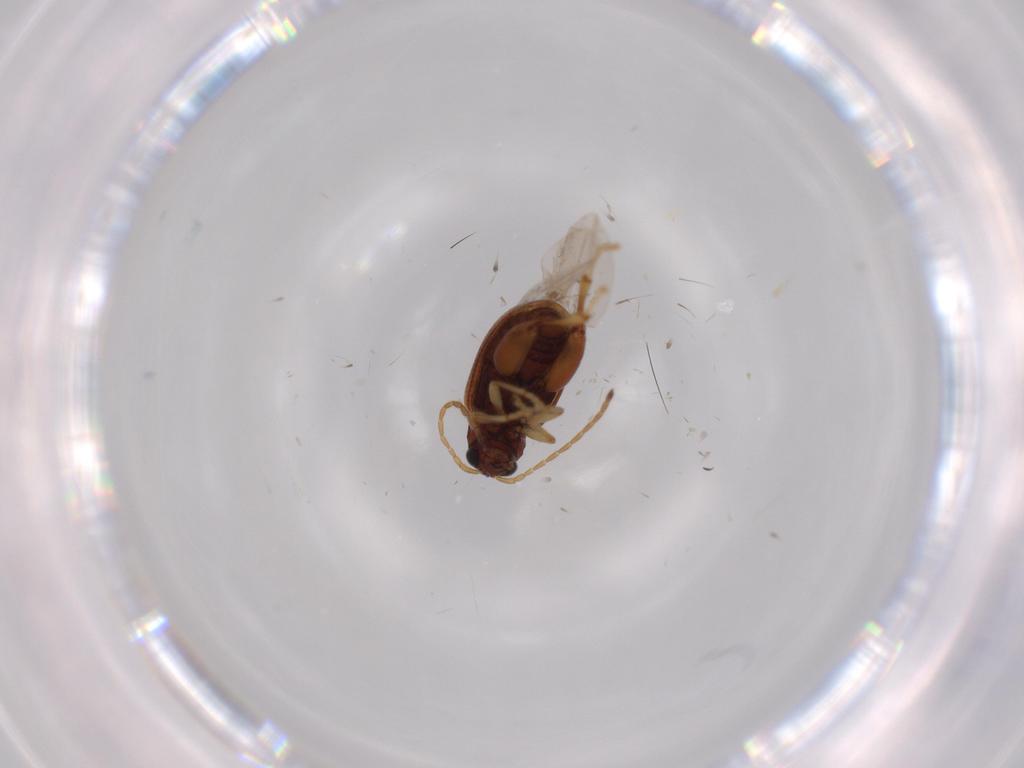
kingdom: Animalia
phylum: Arthropoda
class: Insecta
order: Coleoptera
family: Chrysomelidae
